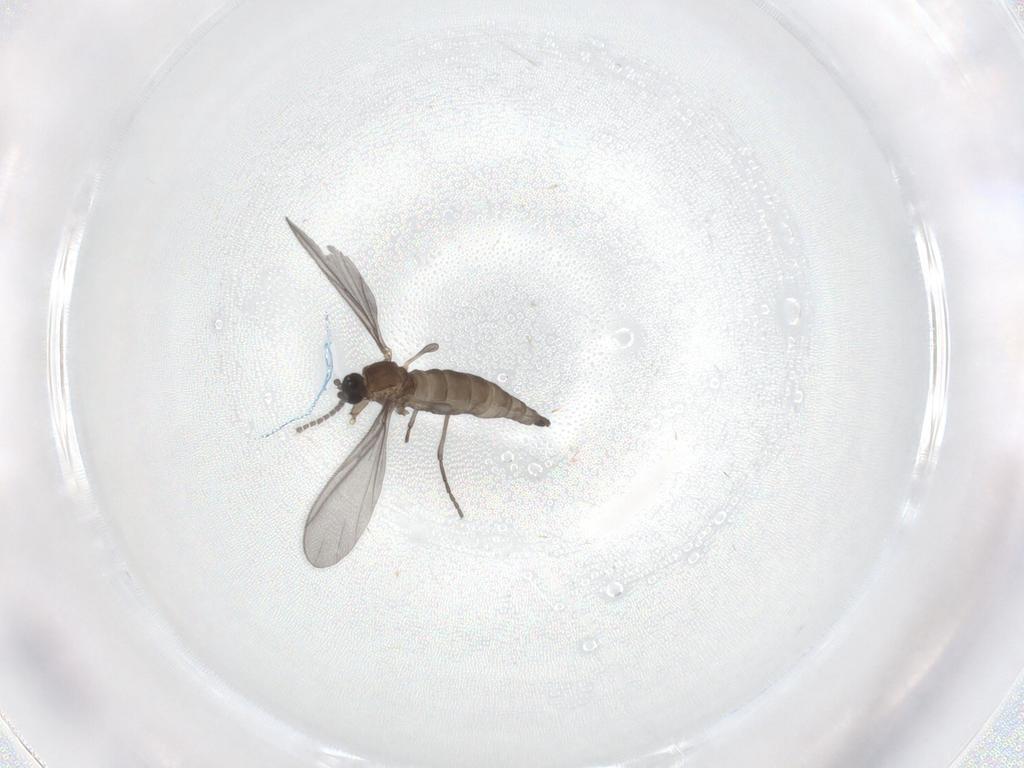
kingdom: Animalia
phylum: Arthropoda
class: Insecta
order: Diptera
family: Sciaridae
